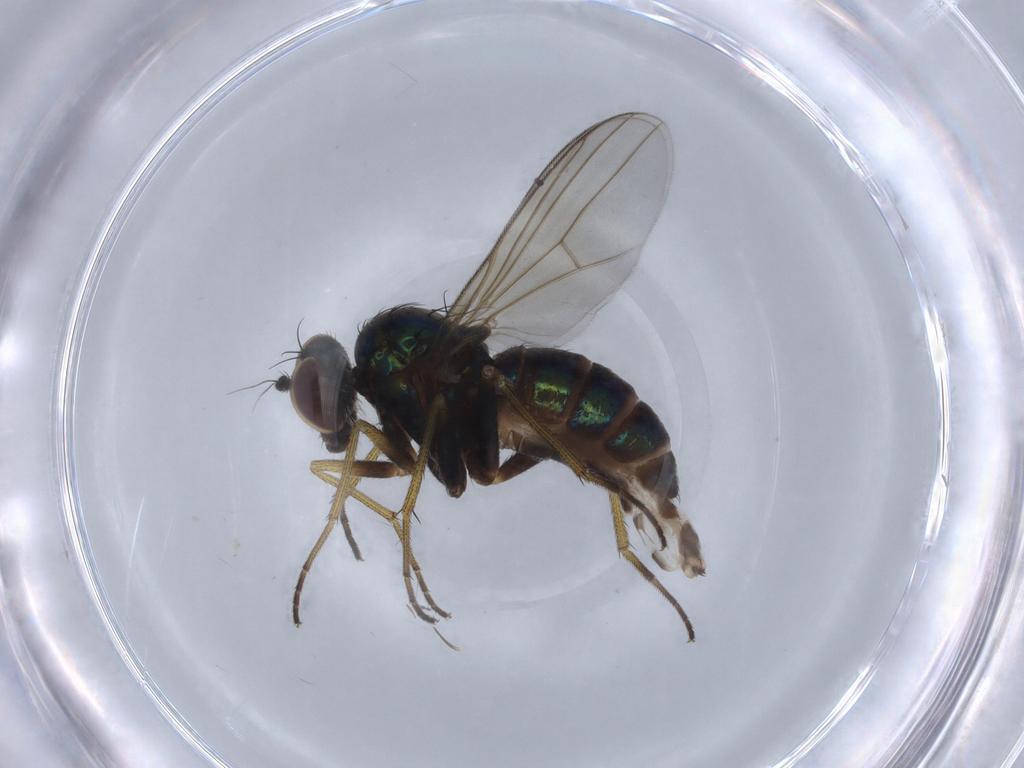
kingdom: Animalia
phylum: Arthropoda
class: Insecta
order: Diptera
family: Dolichopodidae
